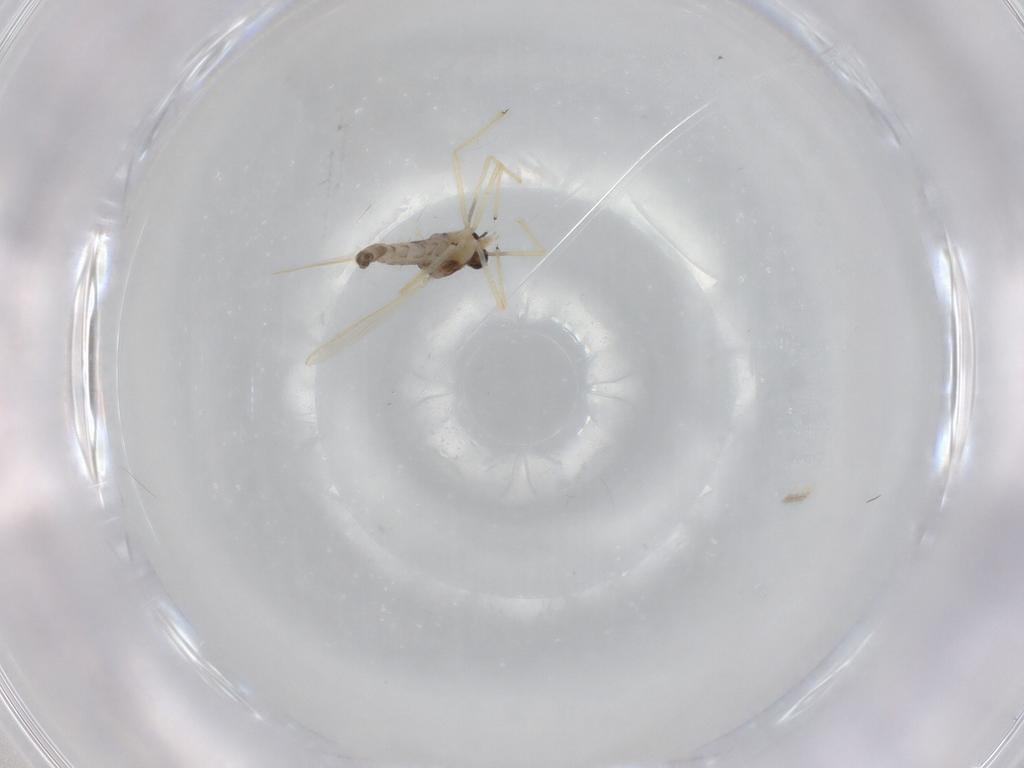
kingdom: Animalia
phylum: Arthropoda
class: Insecta
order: Diptera
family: Chironomidae
